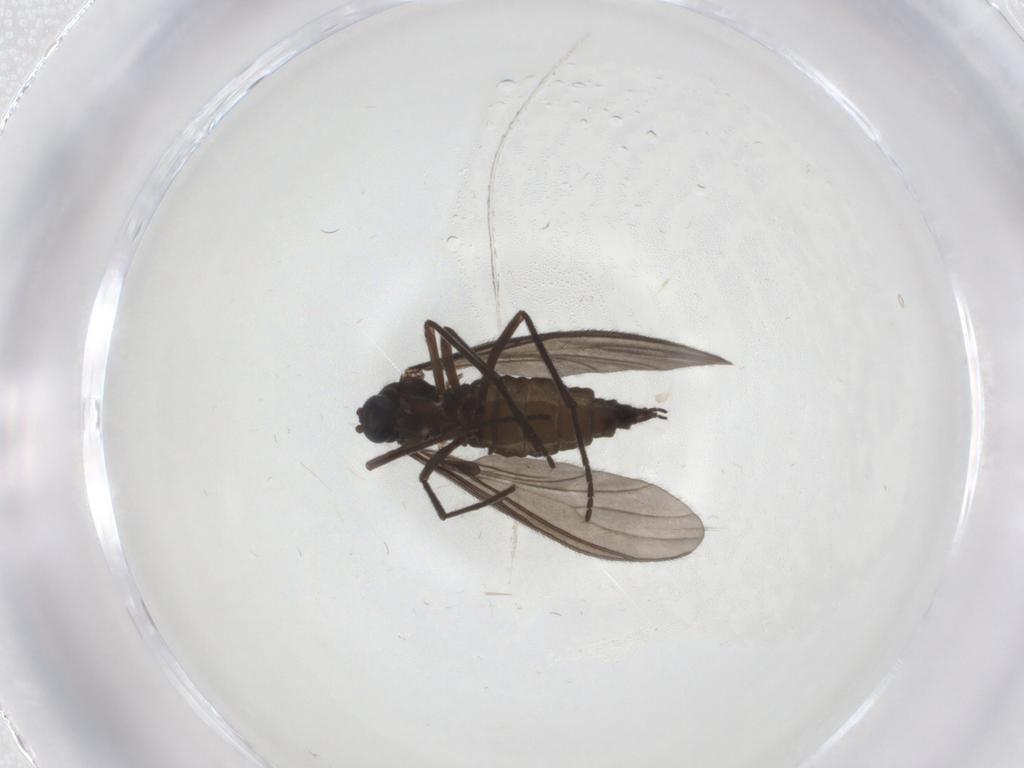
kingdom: Animalia
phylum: Arthropoda
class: Insecta
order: Diptera
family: Sciaridae
